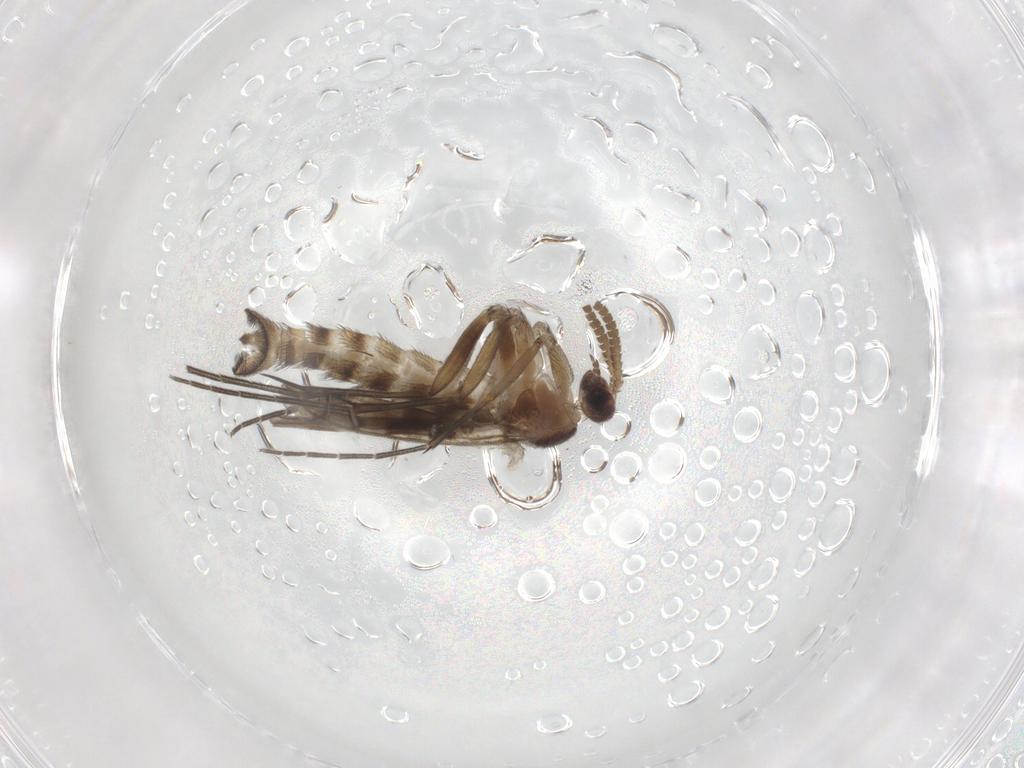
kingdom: Animalia
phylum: Arthropoda
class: Insecta
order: Diptera
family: Keroplatidae
